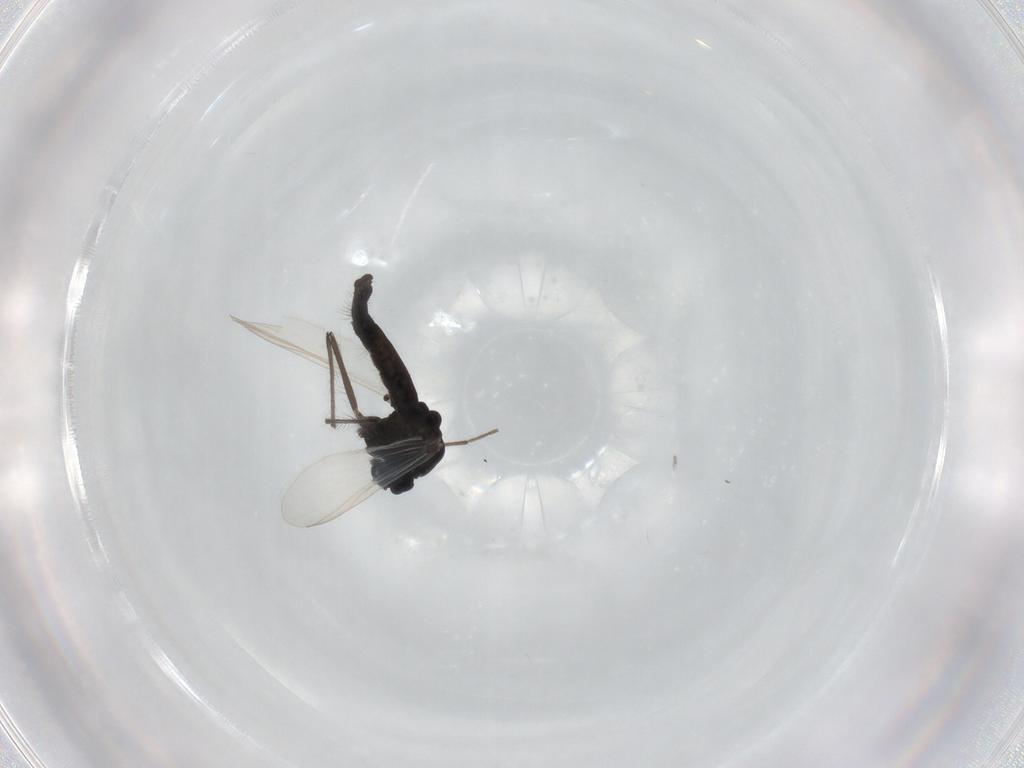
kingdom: Animalia
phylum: Arthropoda
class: Insecta
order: Diptera
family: Chironomidae
